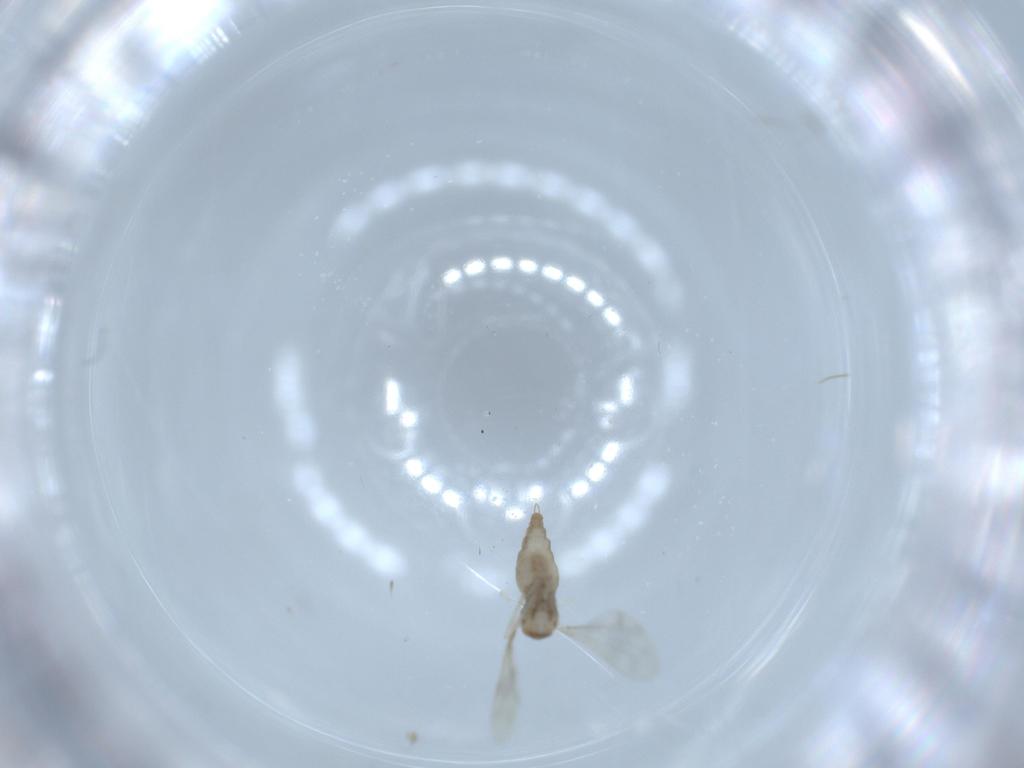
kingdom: Animalia
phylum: Arthropoda
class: Insecta
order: Diptera
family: Cecidomyiidae
